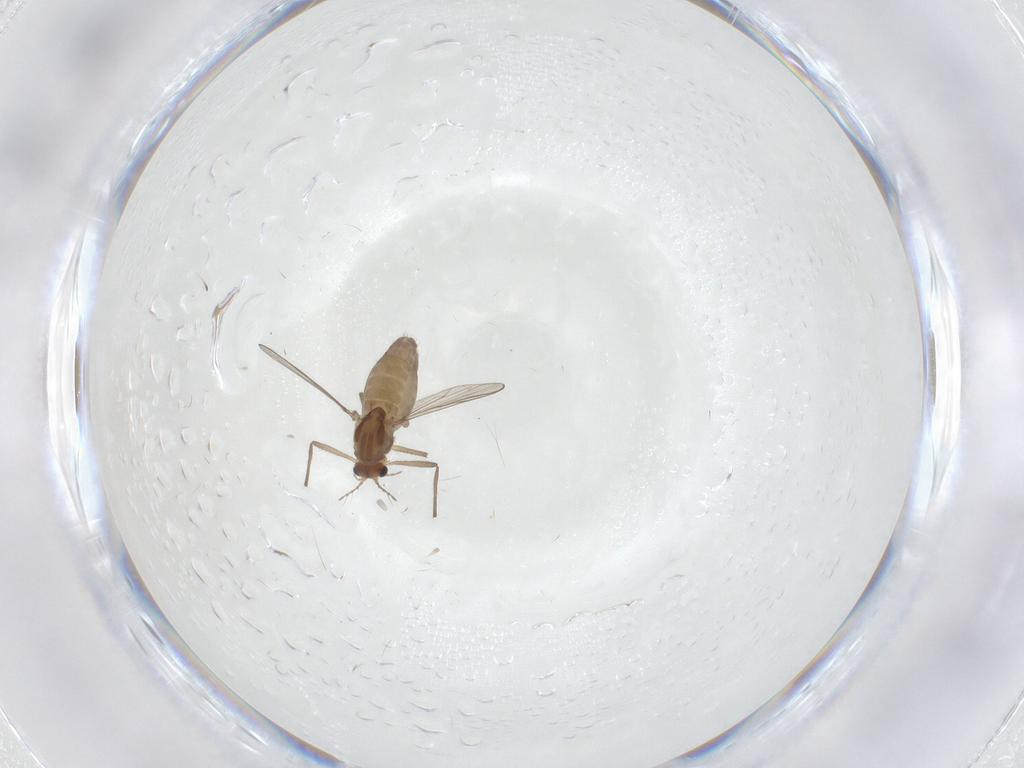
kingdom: Animalia
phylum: Arthropoda
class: Insecta
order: Diptera
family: Chironomidae
